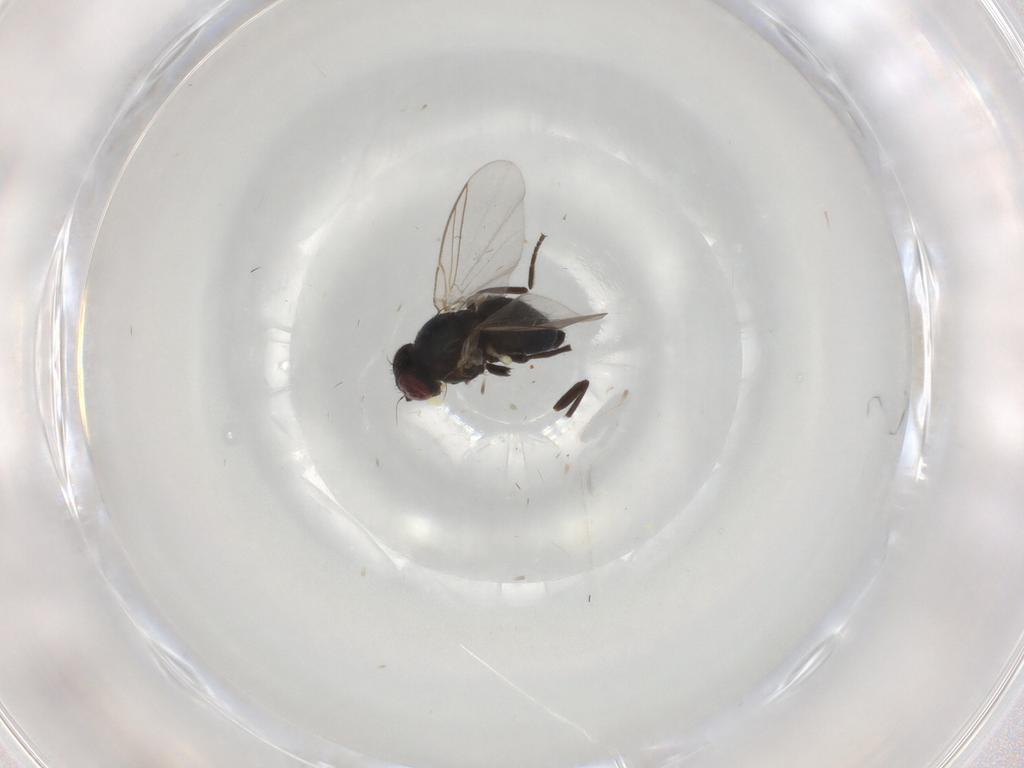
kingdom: Animalia
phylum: Arthropoda
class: Insecta
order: Diptera
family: Agromyzidae
